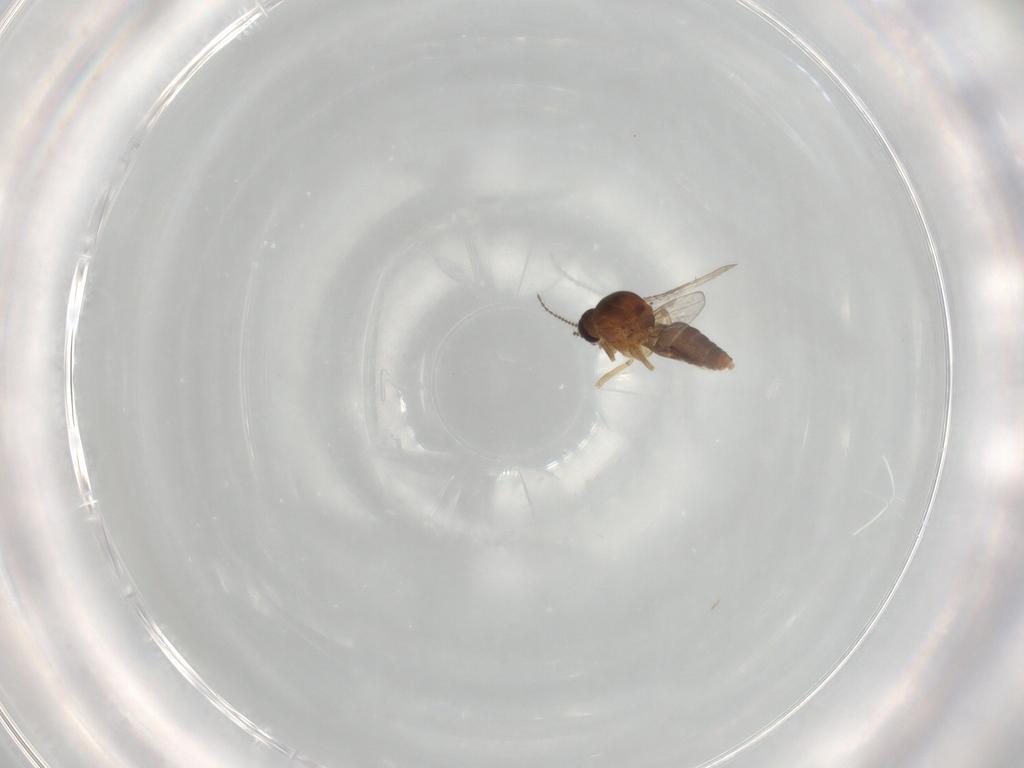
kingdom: Animalia
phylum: Arthropoda
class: Insecta
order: Diptera
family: Ceratopogonidae
